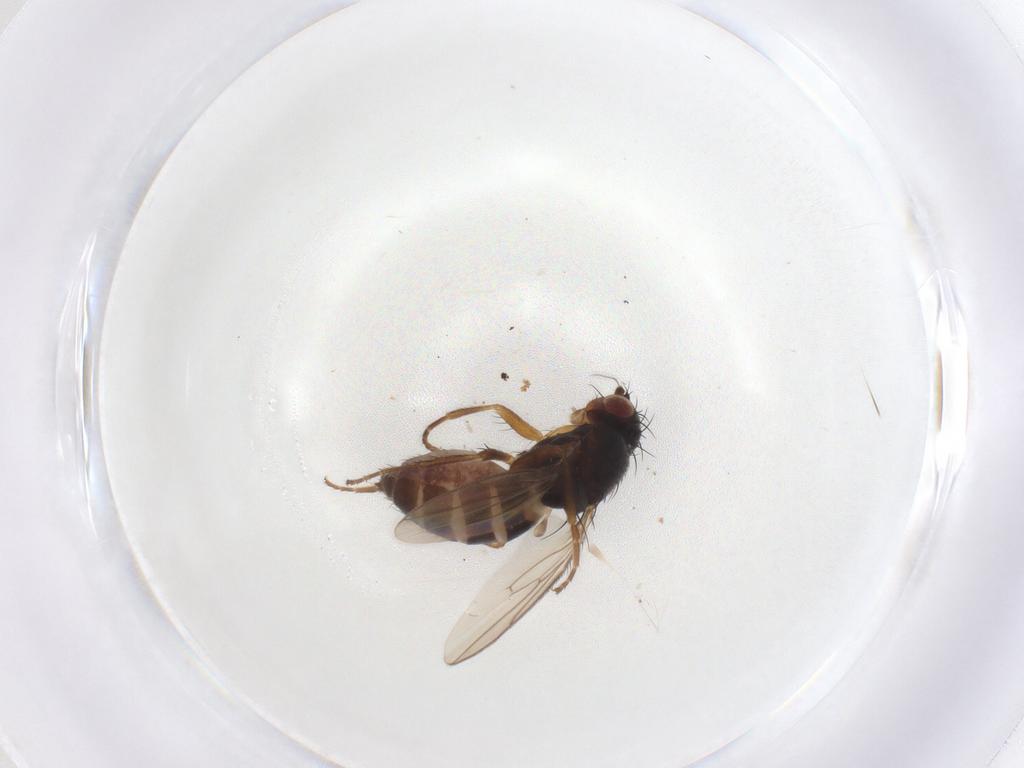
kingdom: Animalia
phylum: Arthropoda
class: Insecta
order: Diptera
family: Sphaeroceridae
